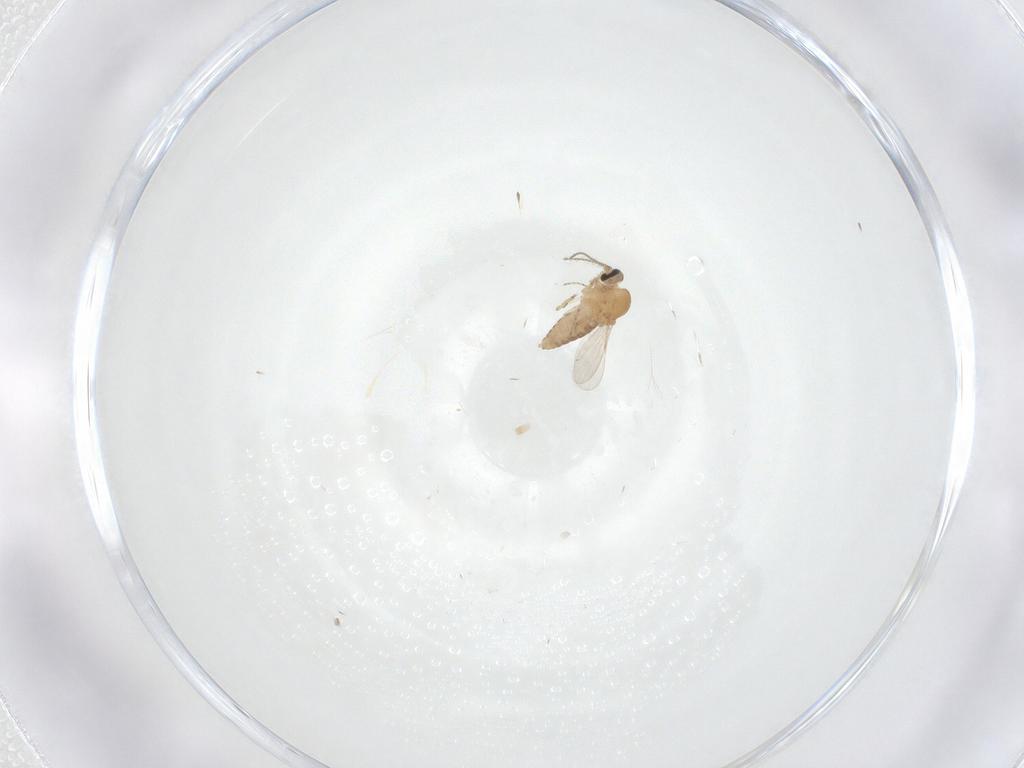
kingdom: Animalia
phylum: Arthropoda
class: Insecta
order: Diptera
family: Ceratopogonidae
